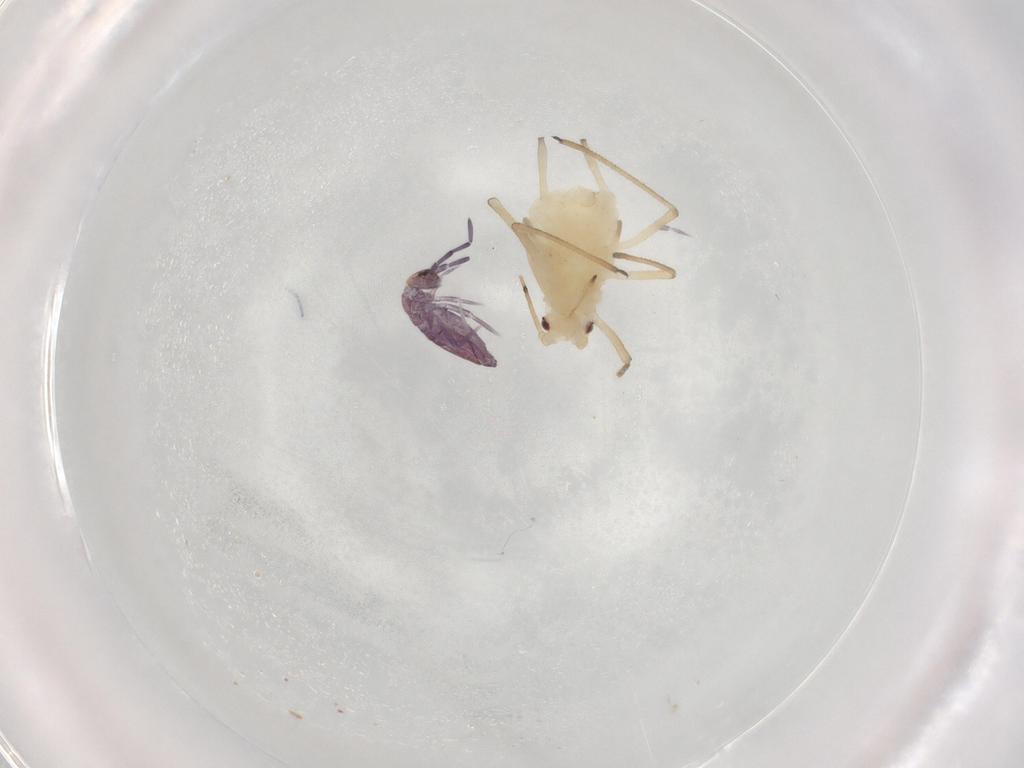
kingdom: Animalia
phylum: Arthropoda
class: Insecta
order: Hemiptera
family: Aphididae
